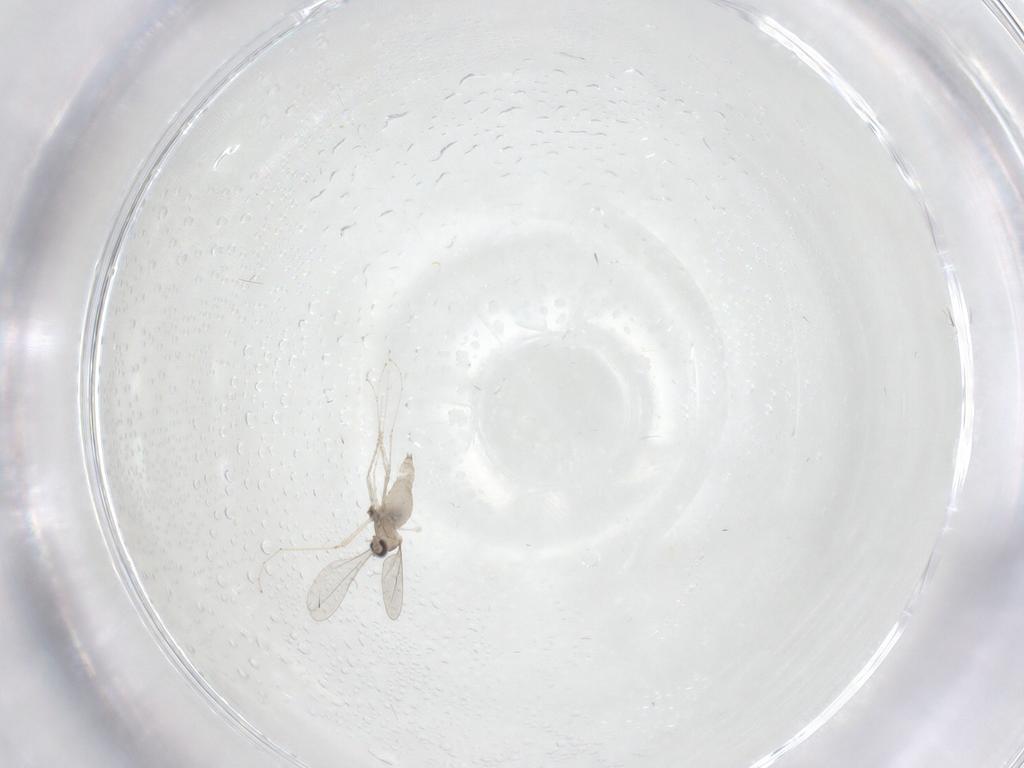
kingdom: Animalia
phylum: Arthropoda
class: Insecta
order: Diptera
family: Cecidomyiidae
